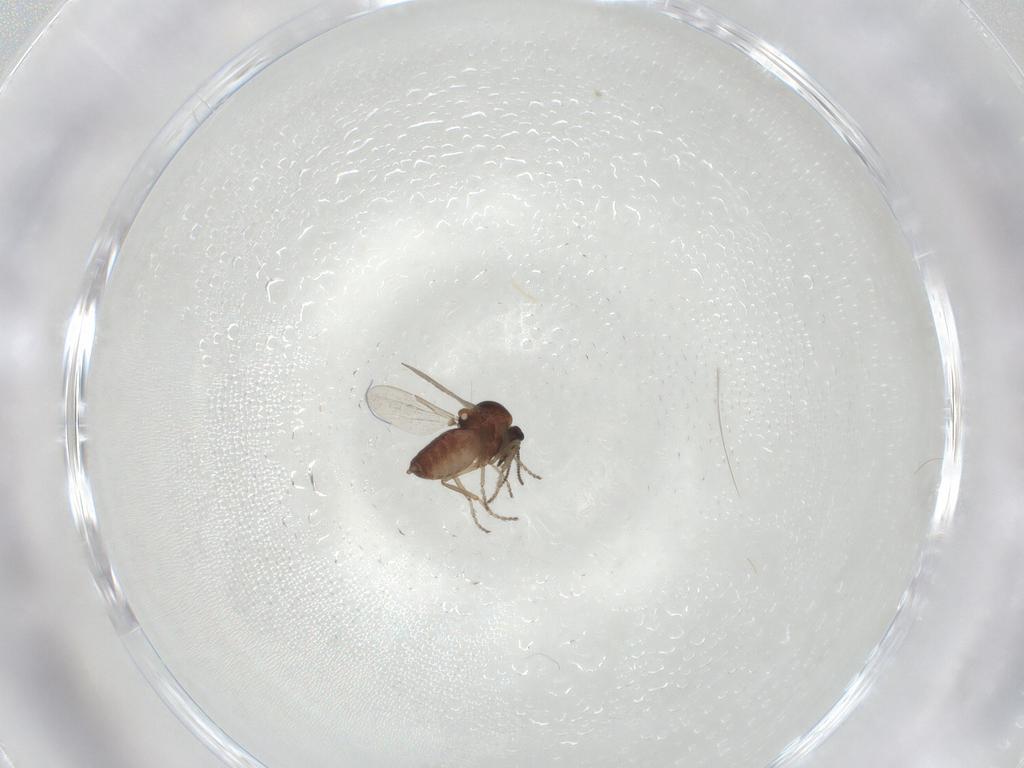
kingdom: Animalia
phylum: Arthropoda
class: Insecta
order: Diptera
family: Ceratopogonidae
